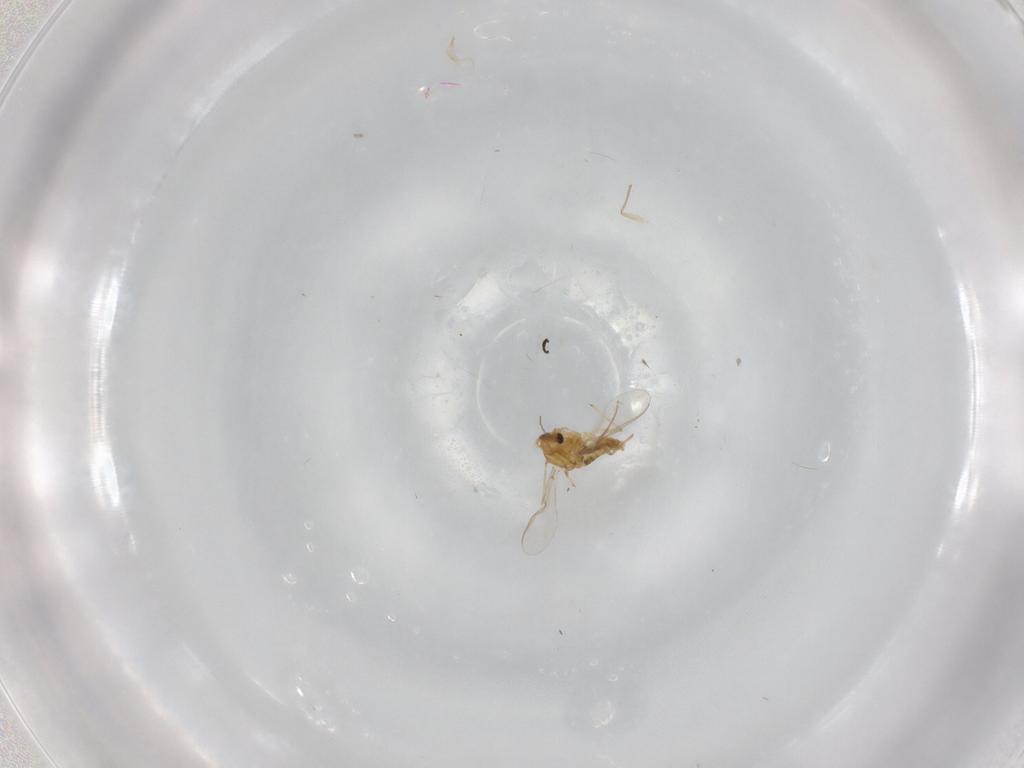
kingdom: Animalia
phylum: Arthropoda
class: Insecta
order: Diptera
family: Chironomidae
